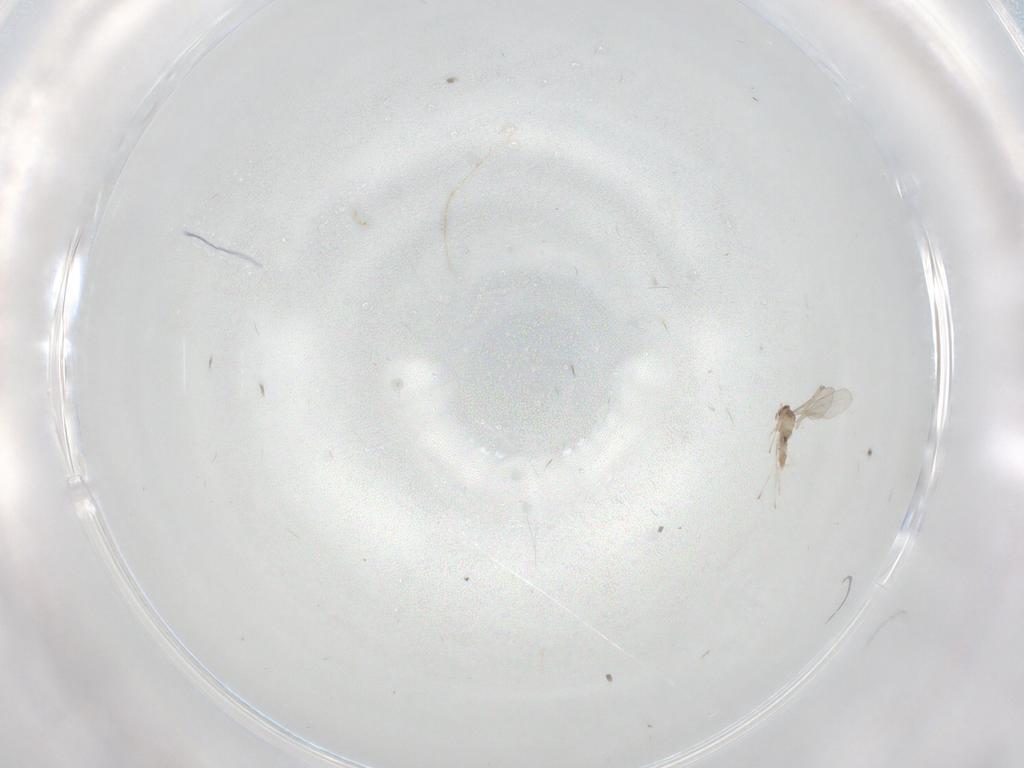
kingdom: Animalia
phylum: Arthropoda
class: Insecta
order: Diptera
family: Cecidomyiidae
